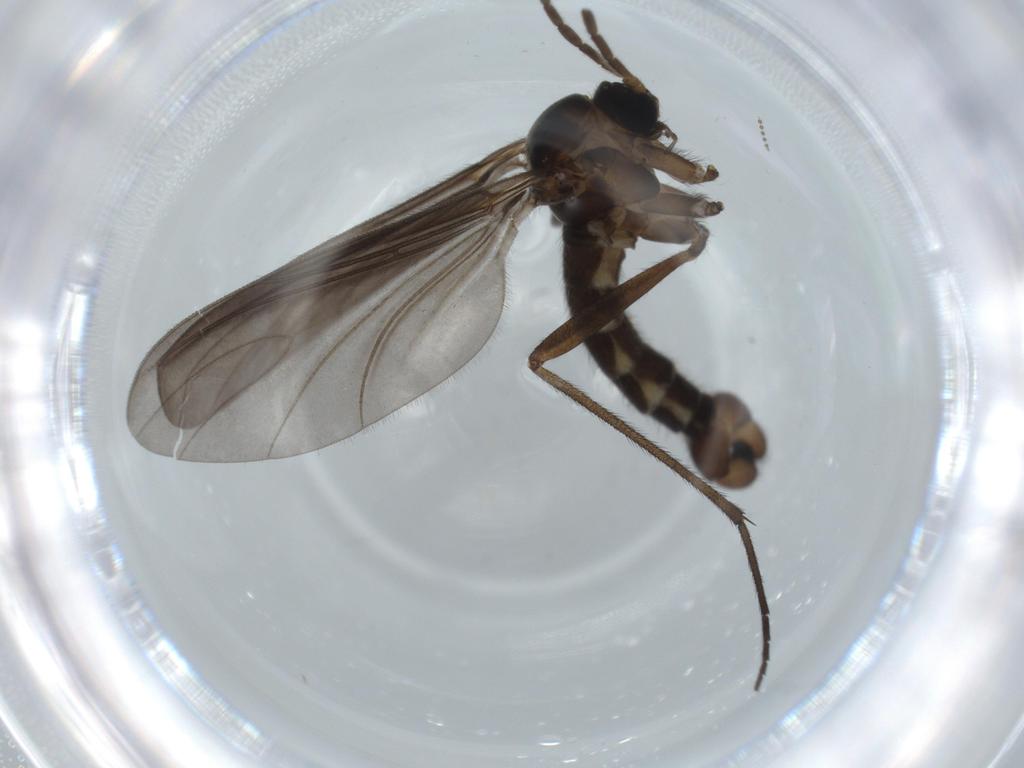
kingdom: Animalia
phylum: Arthropoda
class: Insecta
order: Diptera
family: Sciaridae
